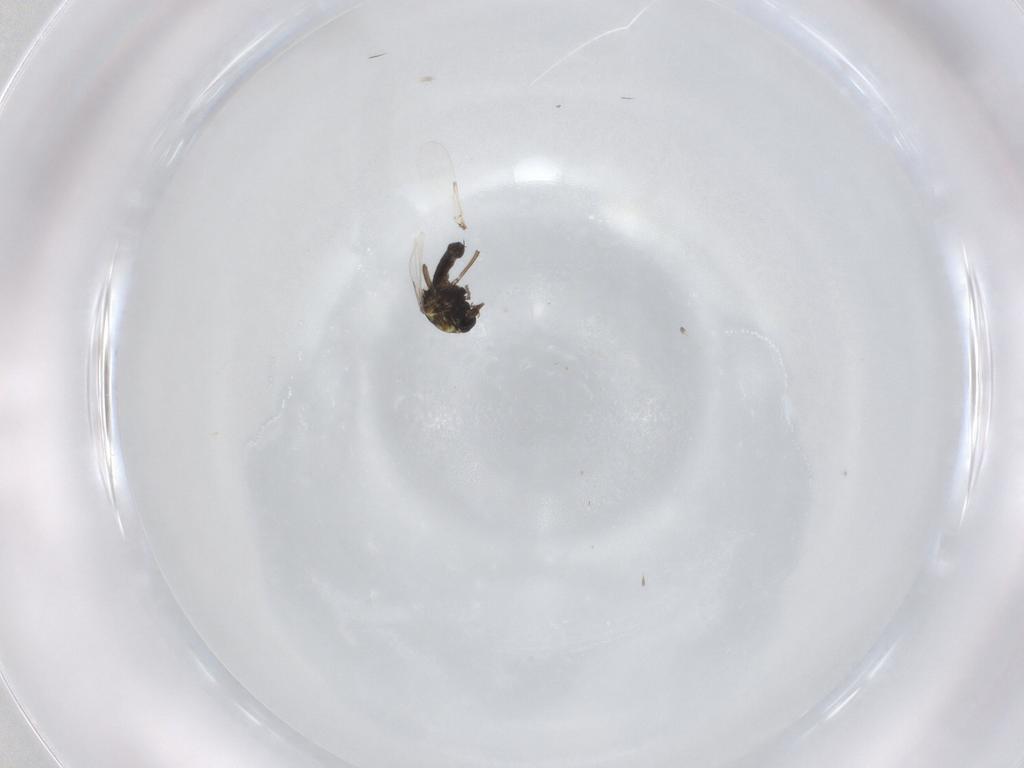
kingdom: Animalia
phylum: Arthropoda
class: Insecta
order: Diptera
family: Ceratopogonidae
